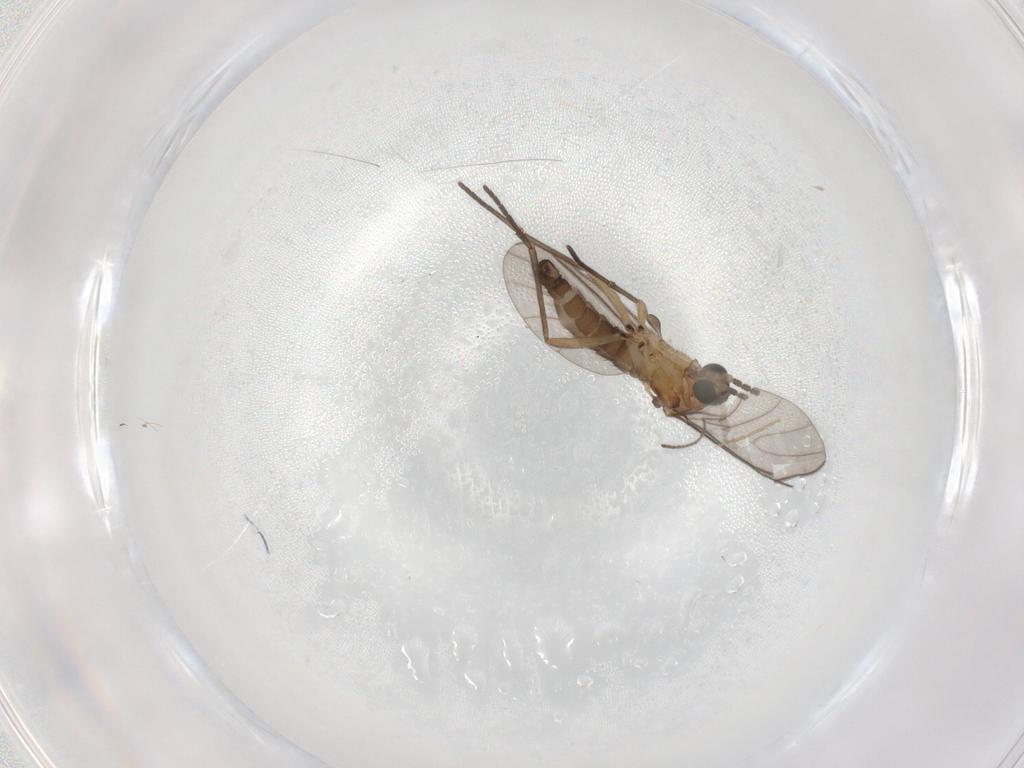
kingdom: Animalia
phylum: Arthropoda
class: Insecta
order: Diptera
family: Sciaridae
